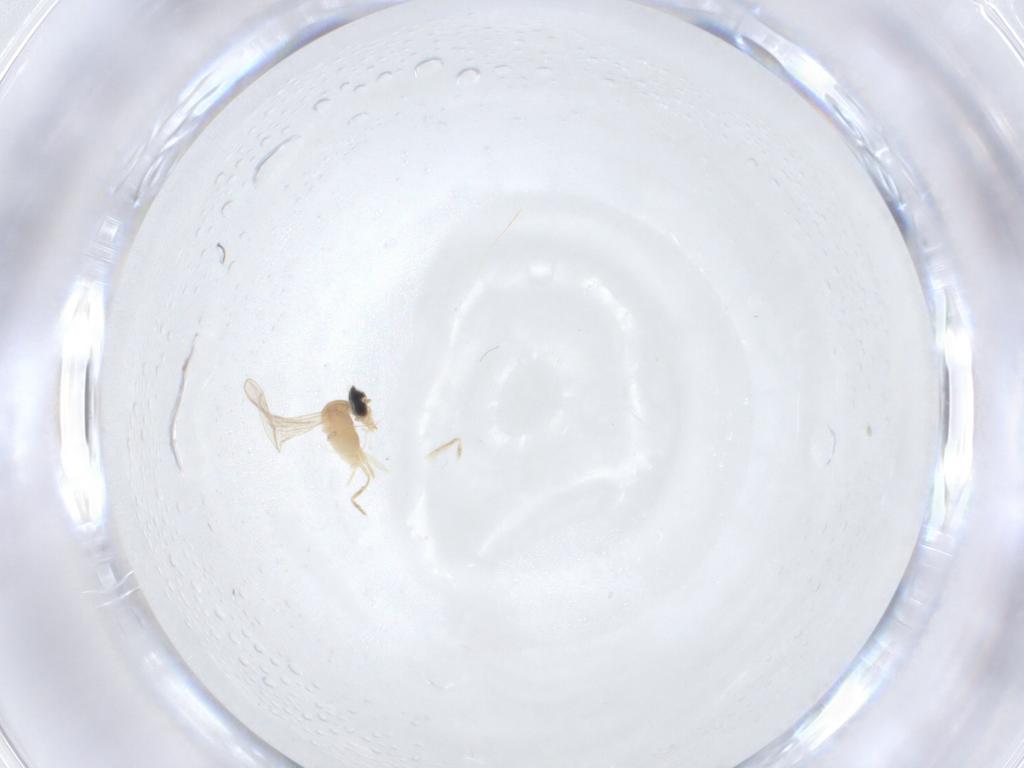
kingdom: Animalia
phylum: Arthropoda
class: Insecta
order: Diptera
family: Cecidomyiidae
